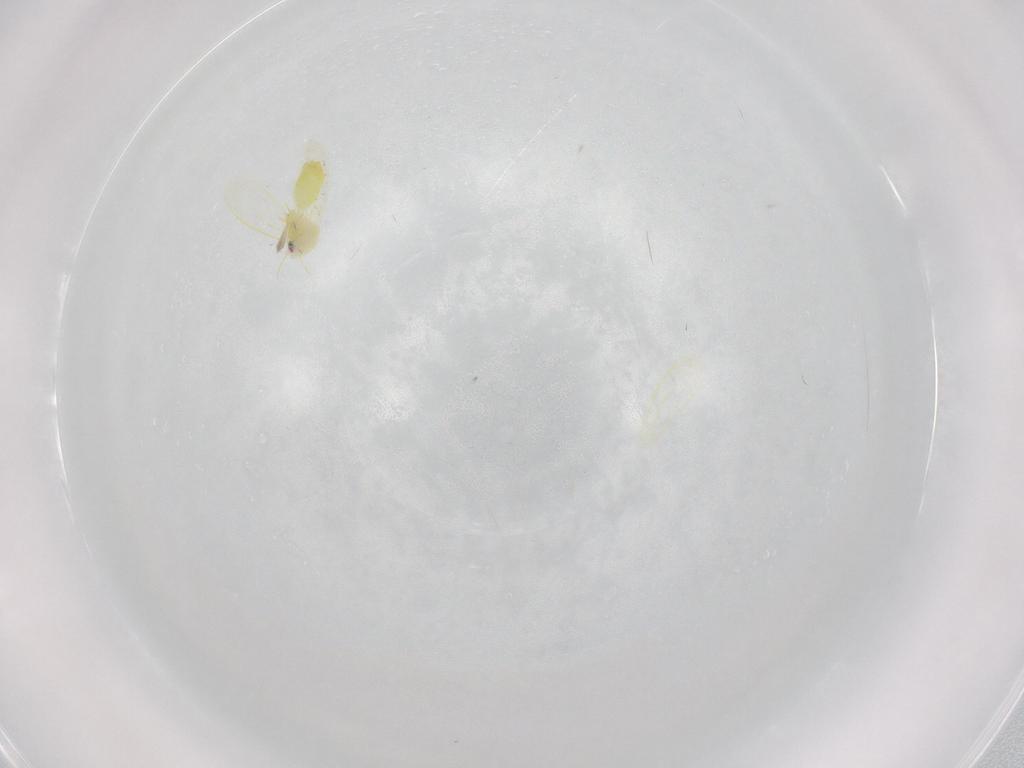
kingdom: Animalia
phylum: Arthropoda
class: Insecta
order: Hemiptera
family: Aleyrodidae
